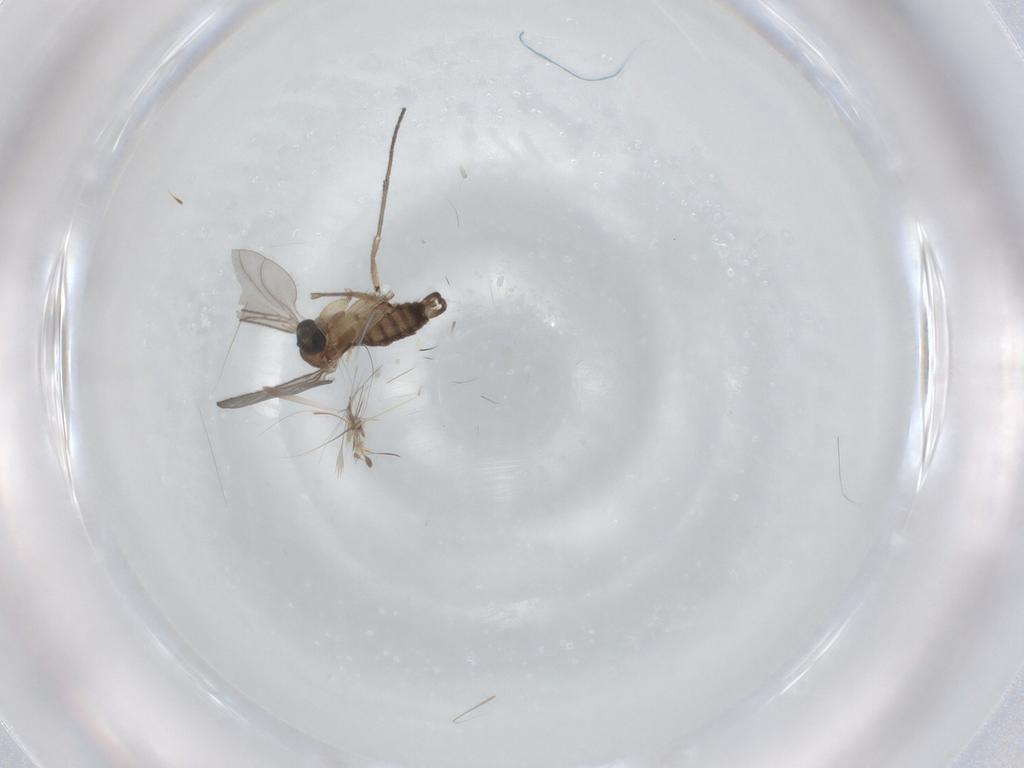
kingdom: Animalia
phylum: Arthropoda
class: Insecta
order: Diptera
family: Sciaridae
